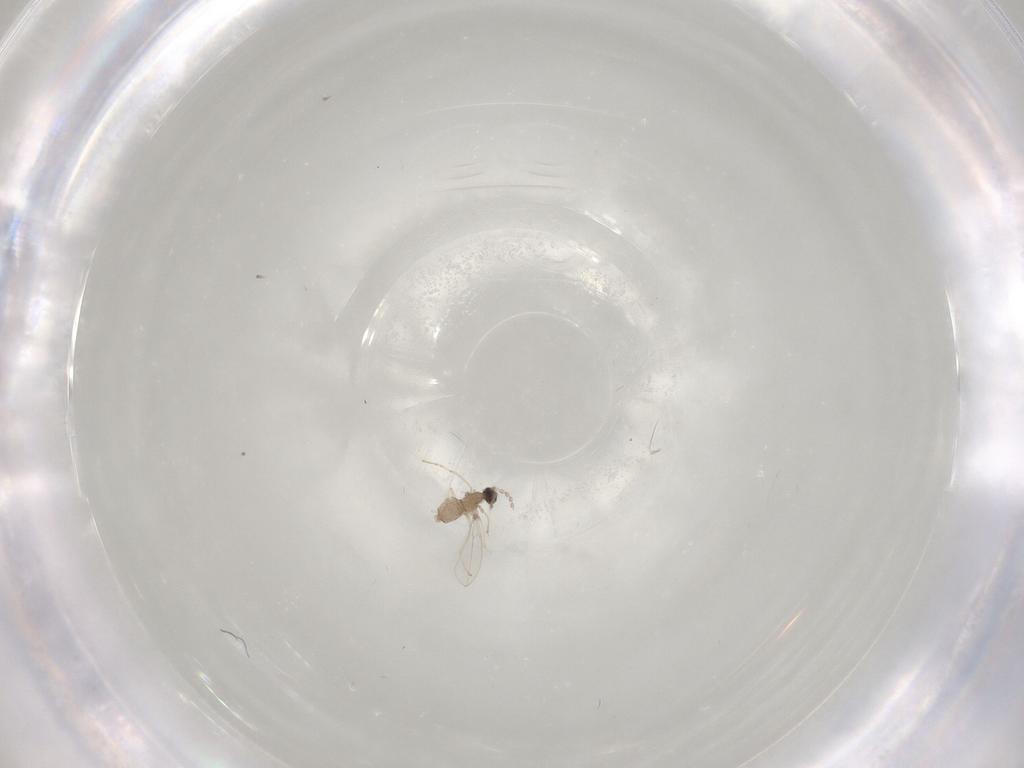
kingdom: Animalia
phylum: Arthropoda
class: Insecta
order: Diptera
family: Cecidomyiidae
